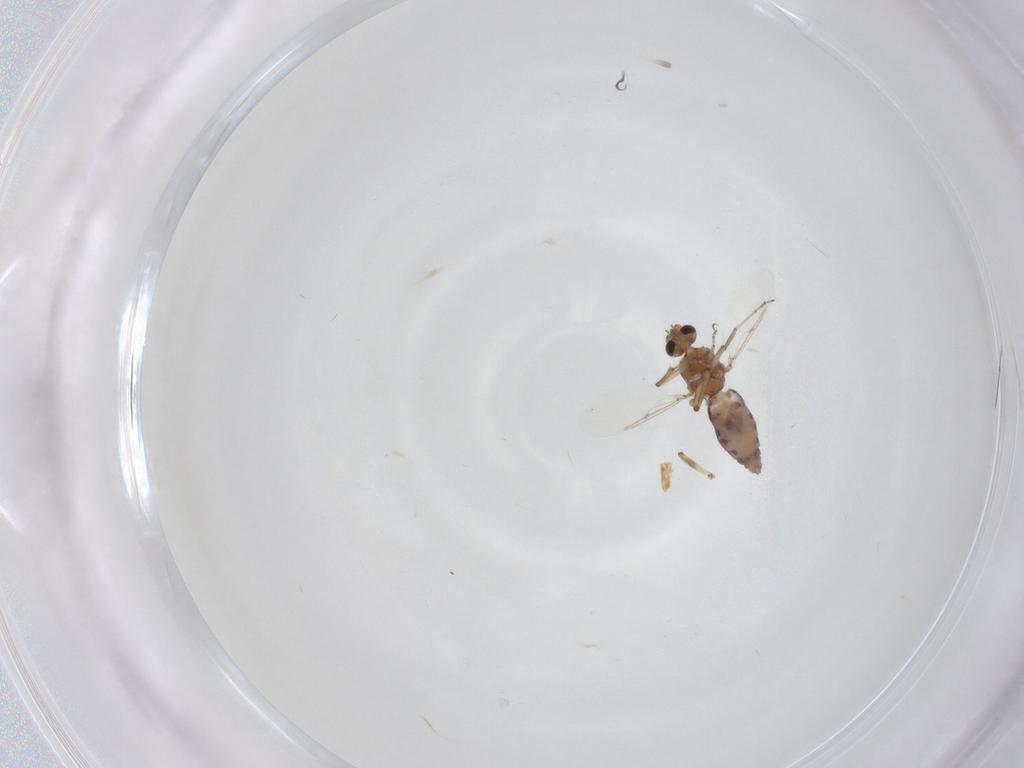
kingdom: Animalia
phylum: Arthropoda
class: Insecta
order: Diptera
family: Ceratopogonidae
